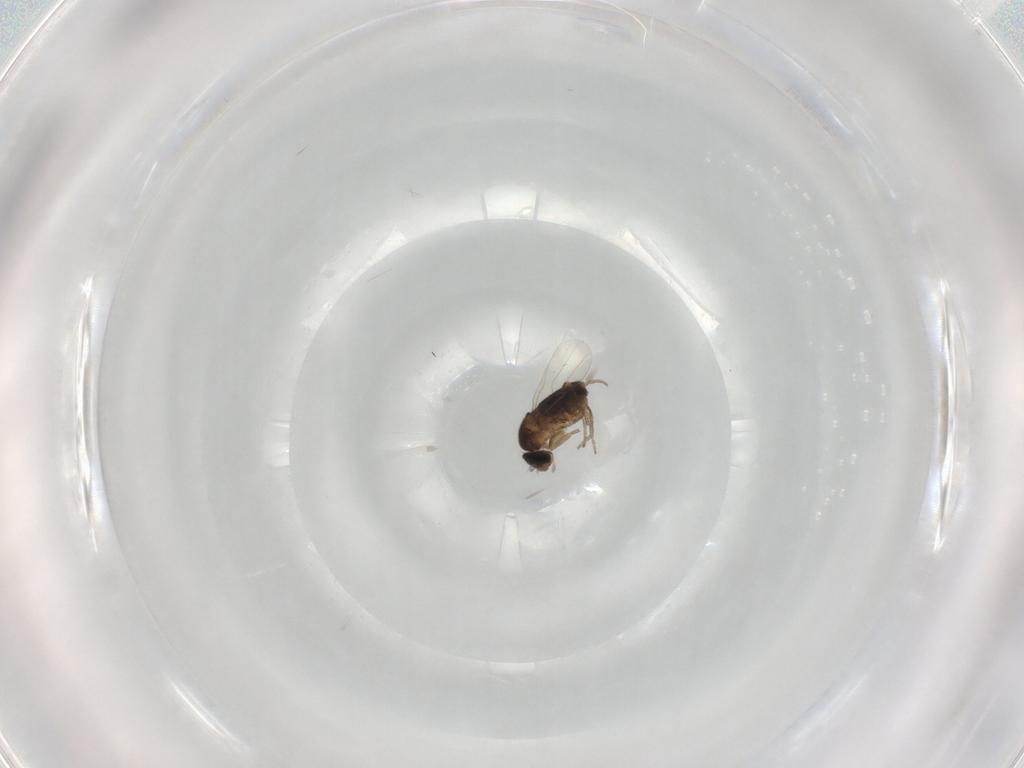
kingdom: Animalia
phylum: Arthropoda
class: Insecta
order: Diptera
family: Phoridae
